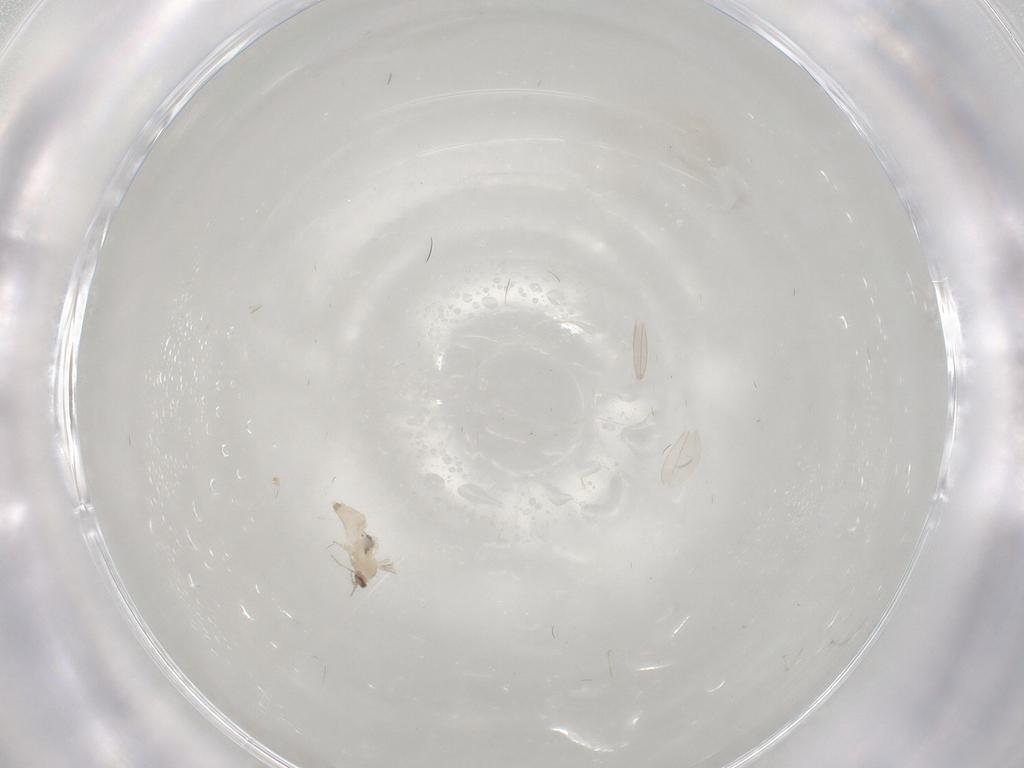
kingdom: Animalia
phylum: Arthropoda
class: Insecta
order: Diptera
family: Cecidomyiidae
